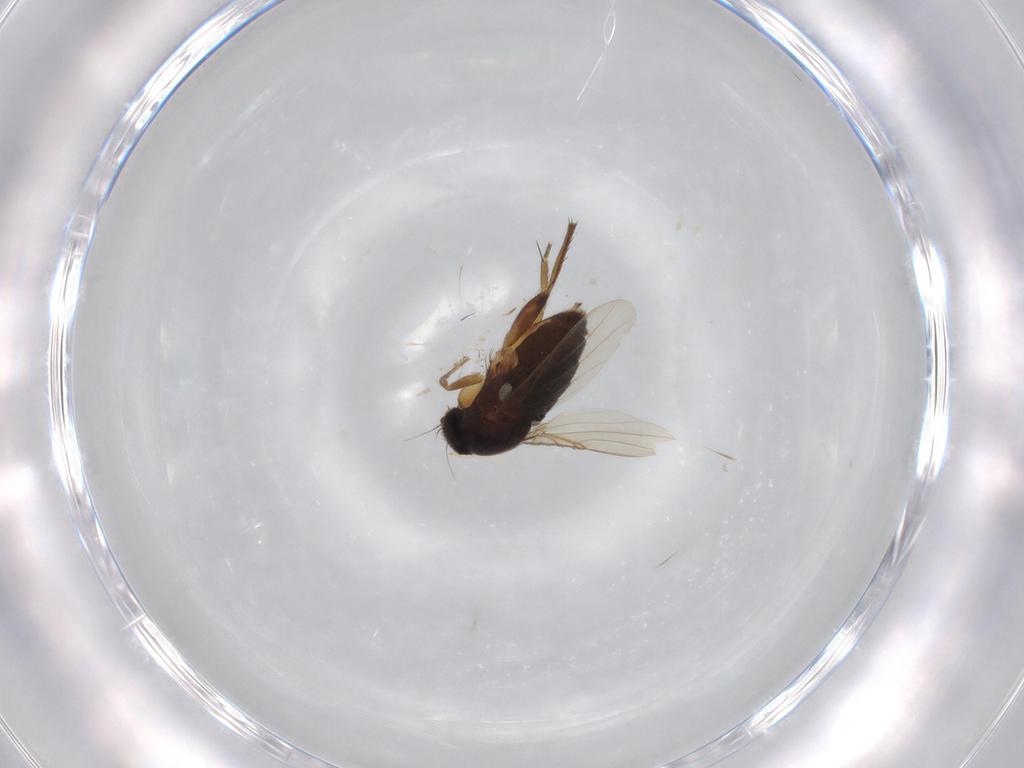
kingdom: Animalia
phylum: Arthropoda
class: Insecta
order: Diptera
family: Phoridae
